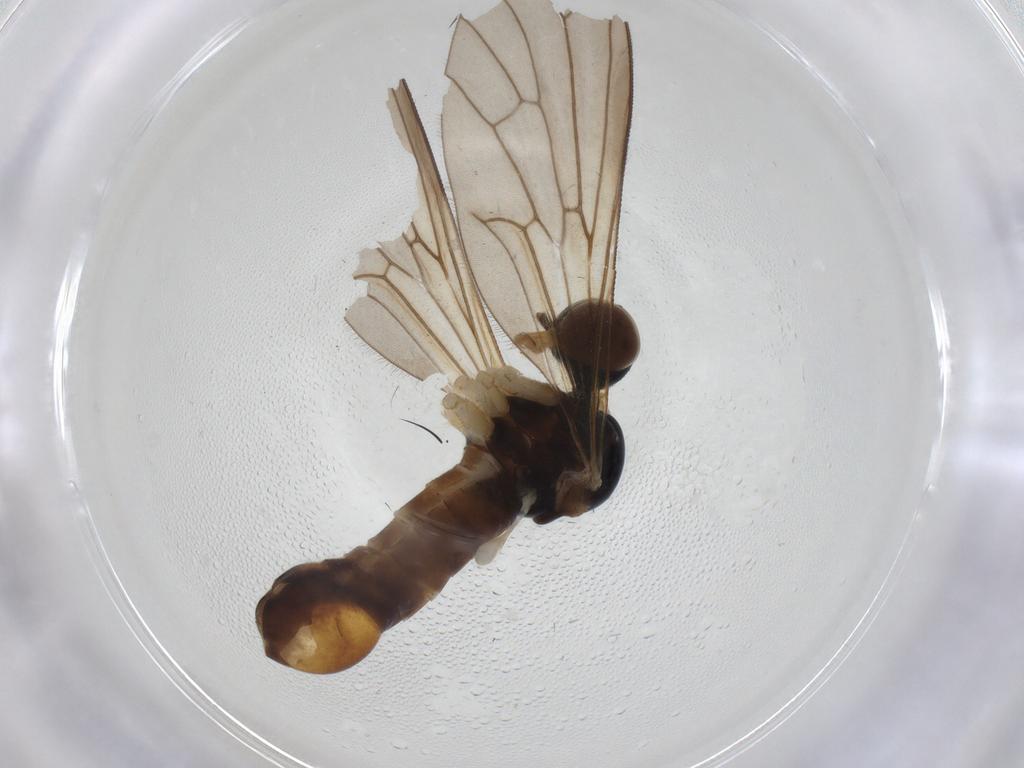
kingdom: Animalia
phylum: Arthropoda
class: Insecta
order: Diptera
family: Brachystomatidae
